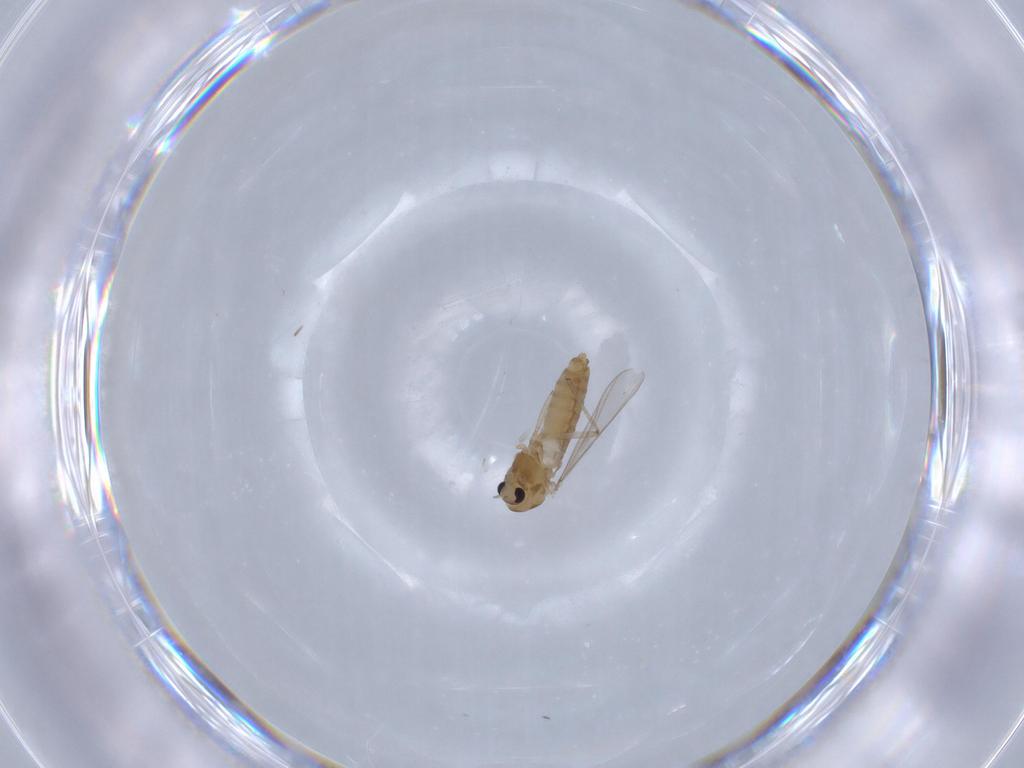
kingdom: Animalia
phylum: Arthropoda
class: Insecta
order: Diptera
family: Chironomidae
